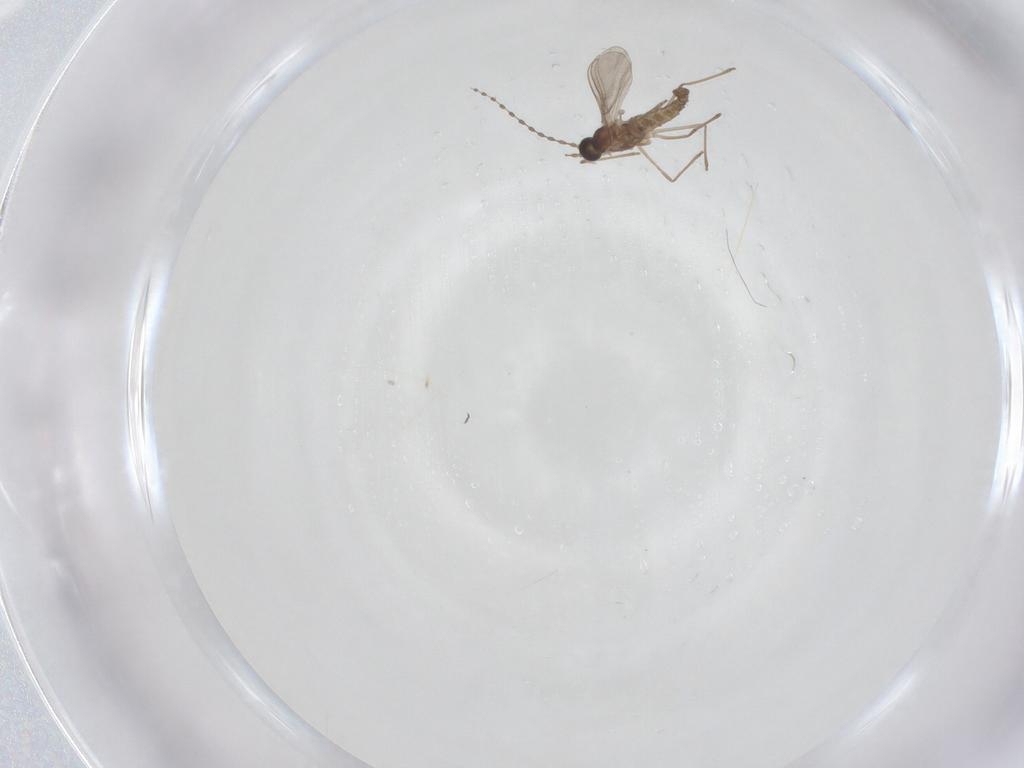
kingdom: Animalia
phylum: Arthropoda
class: Insecta
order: Diptera
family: Cecidomyiidae
